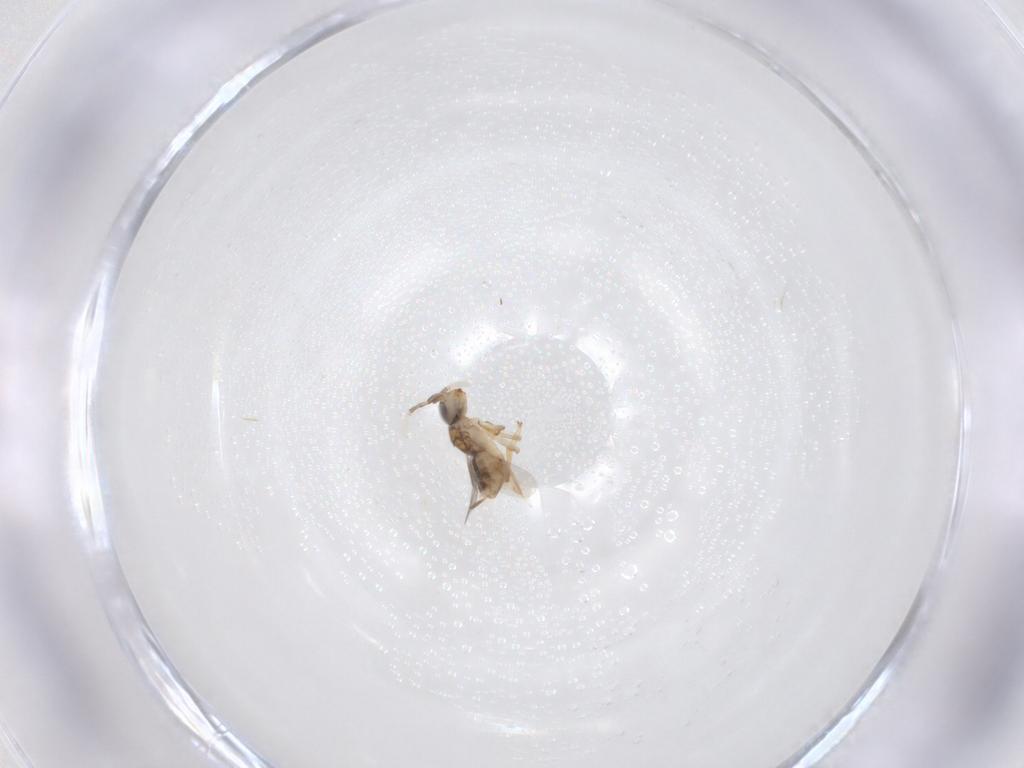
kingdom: Animalia
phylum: Arthropoda
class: Insecta
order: Hymenoptera
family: Encyrtidae
